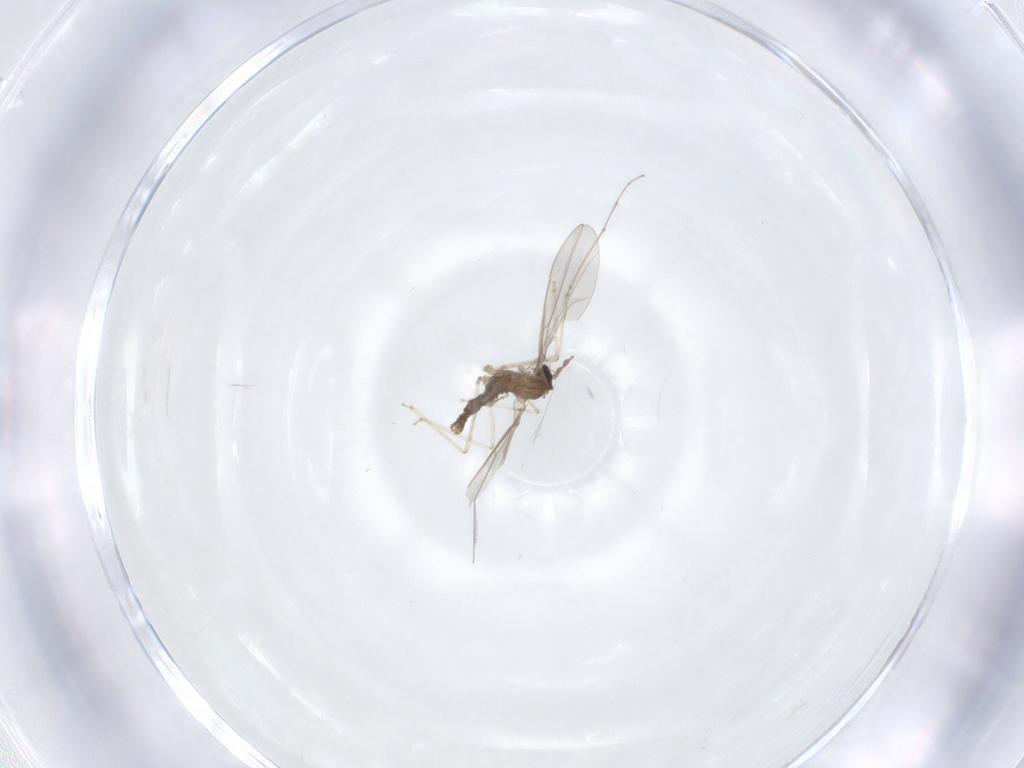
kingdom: Animalia
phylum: Arthropoda
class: Insecta
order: Diptera
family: Cecidomyiidae
